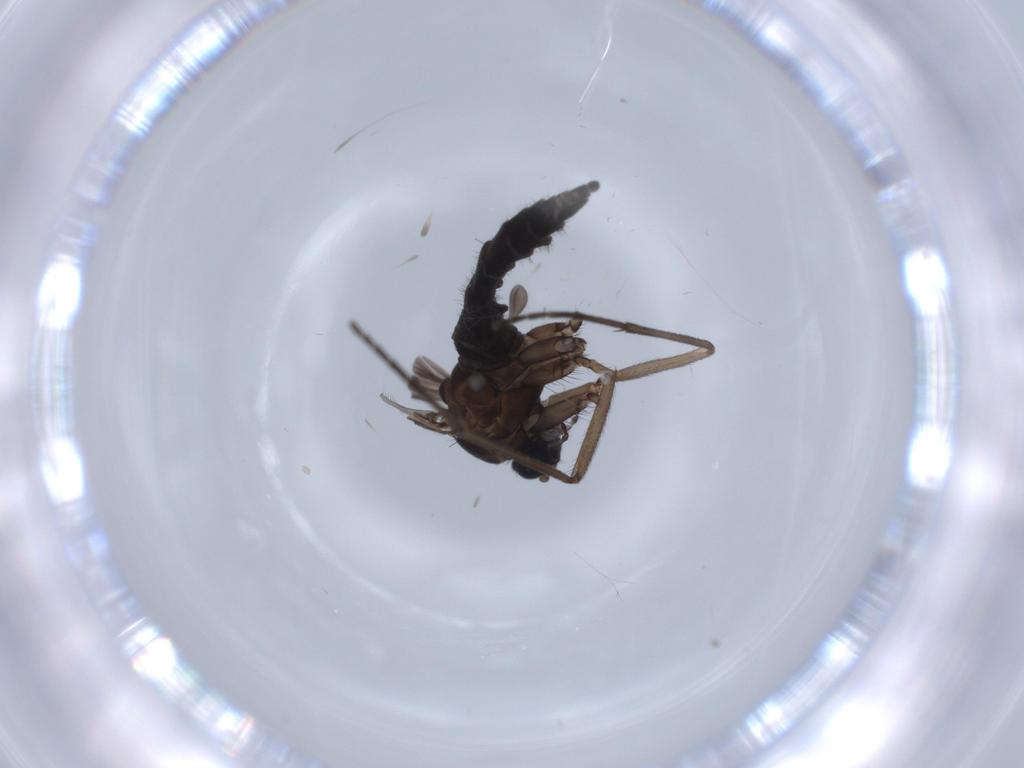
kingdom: Animalia
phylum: Arthropoda
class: Insecta
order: Diptera
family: Sciaridae
